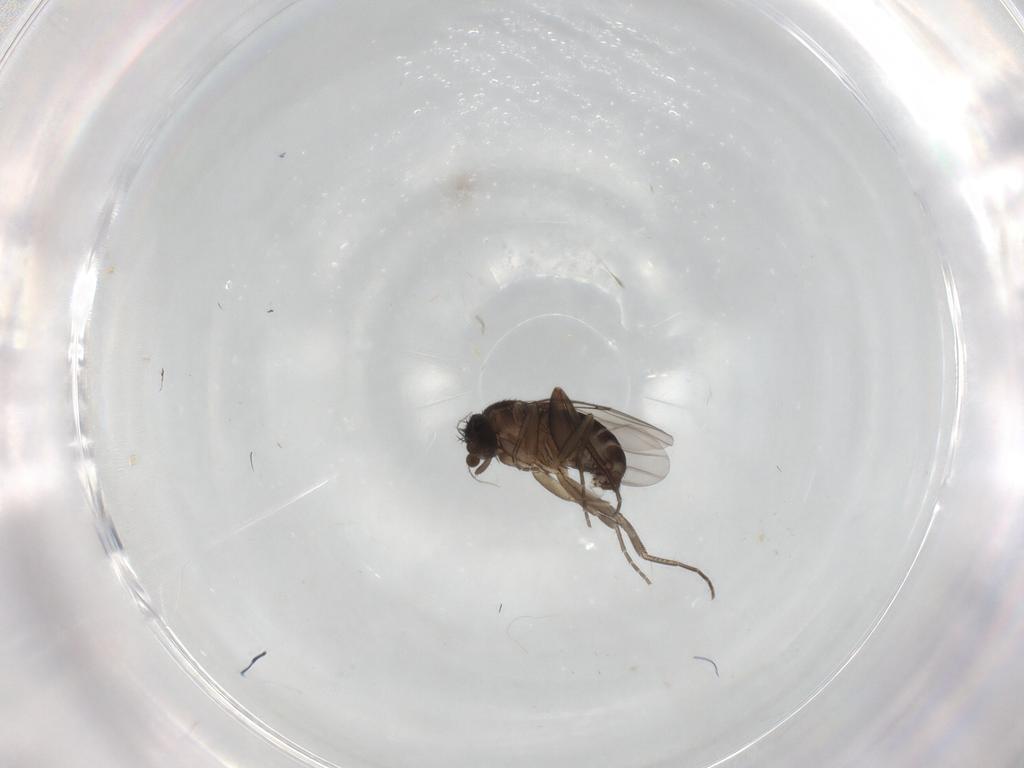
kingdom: Animalia
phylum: Arthropoda
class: Insecta
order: Diptera
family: Phoridae
